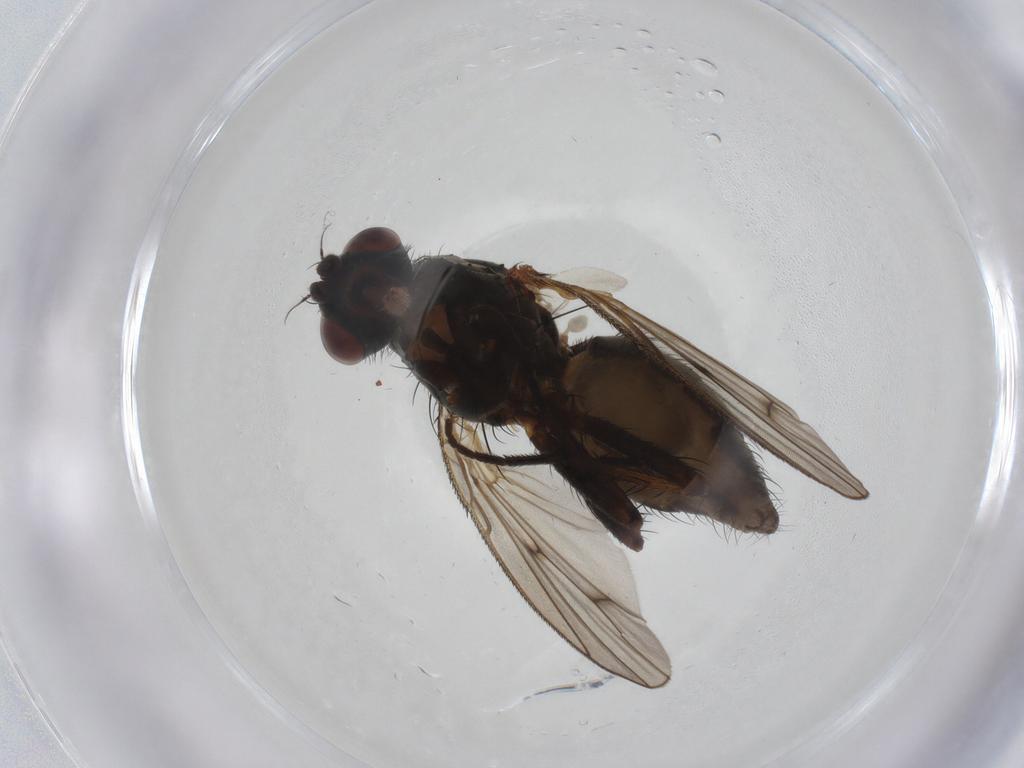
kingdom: Animalia
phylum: Arthropoda
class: Insecta
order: Diptera
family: Anthomyiidae
